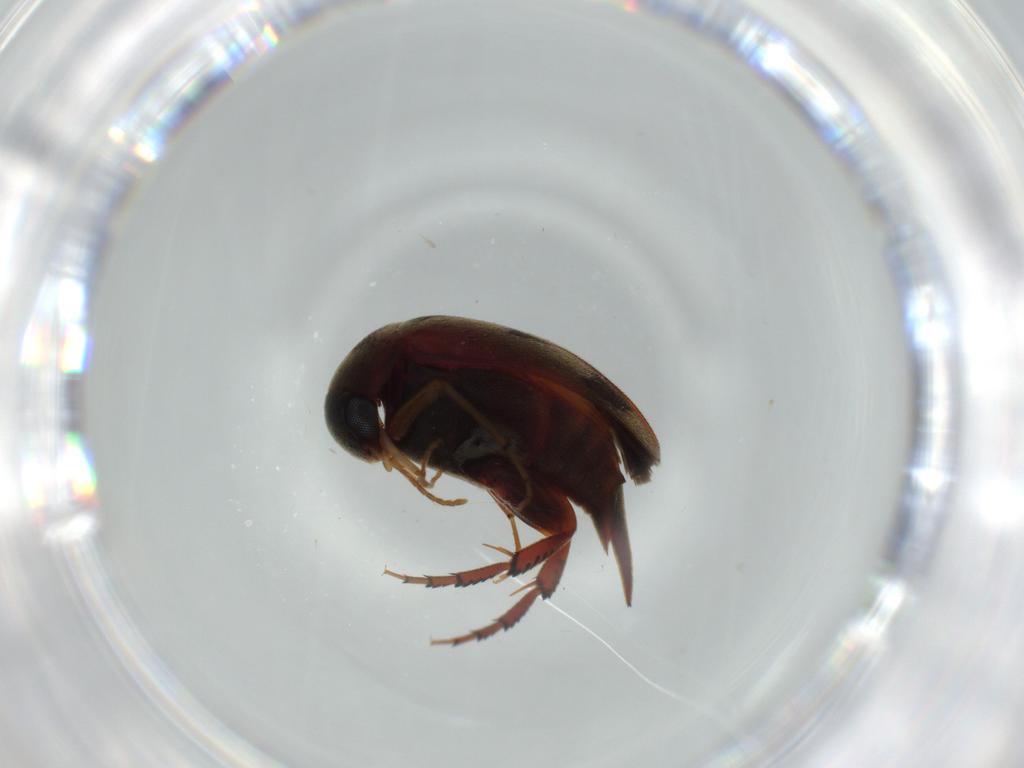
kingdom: Animalia
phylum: Arthropoda
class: Insecta
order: Coleoptera
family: Mordellidae
